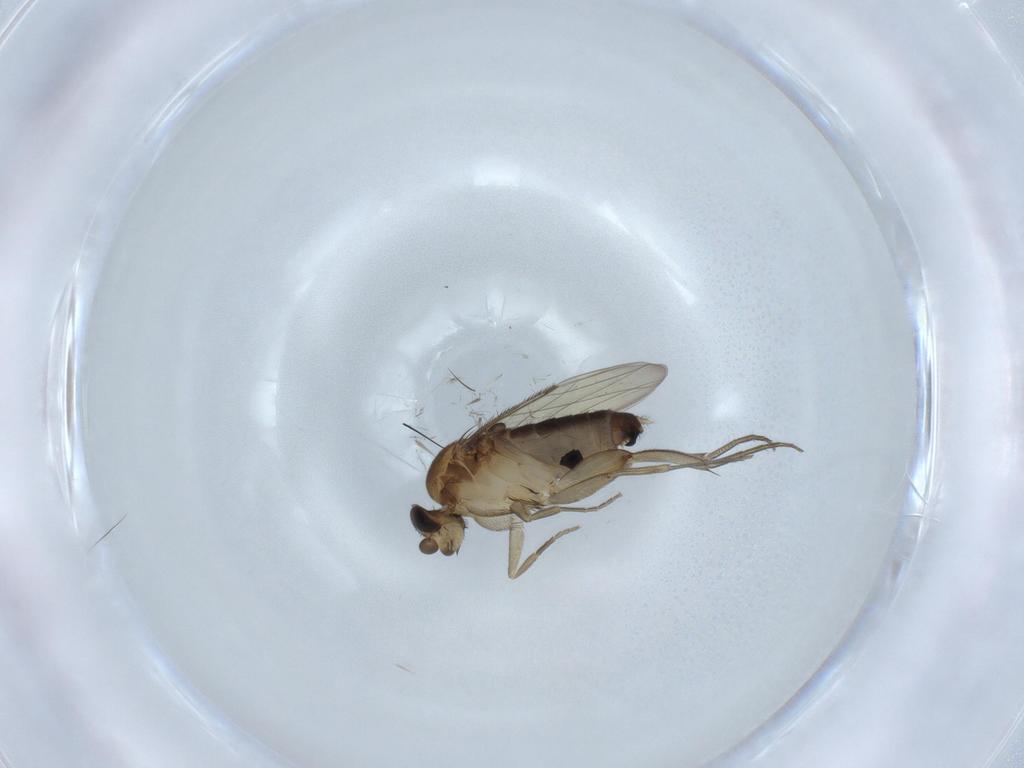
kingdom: Animalia
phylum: Arthropoda
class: Insecta
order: Diptera
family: Phoridae
